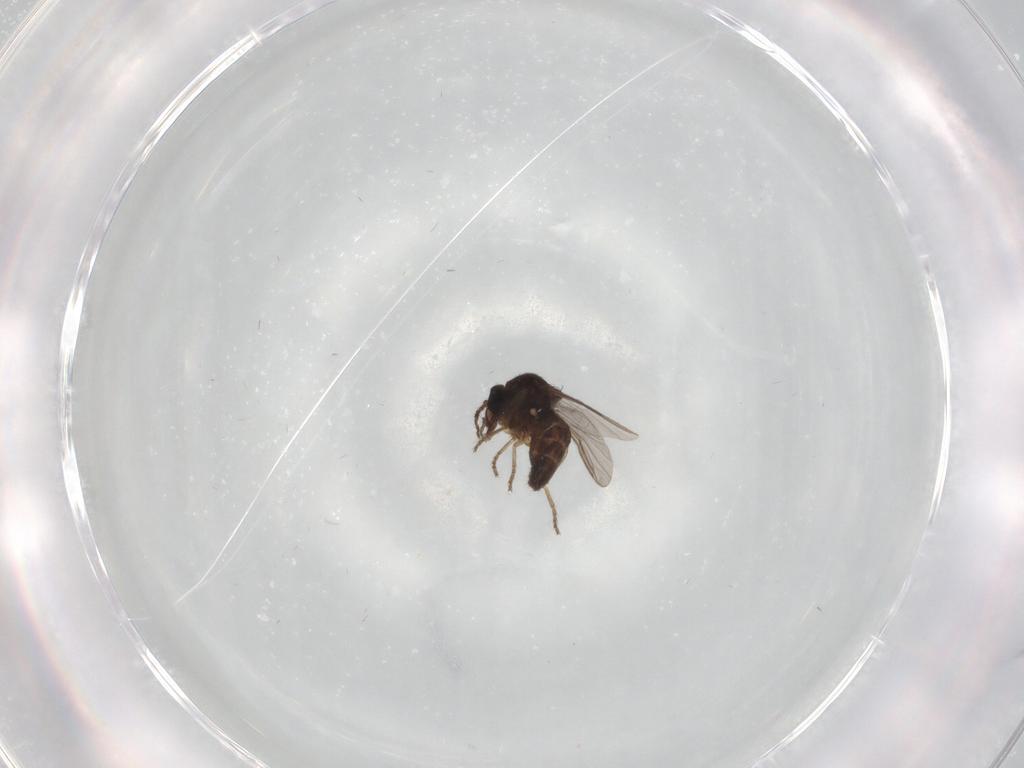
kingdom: Animalia
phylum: Arthropoda
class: Insecta
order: Diptera
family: Ceratopogonidae
